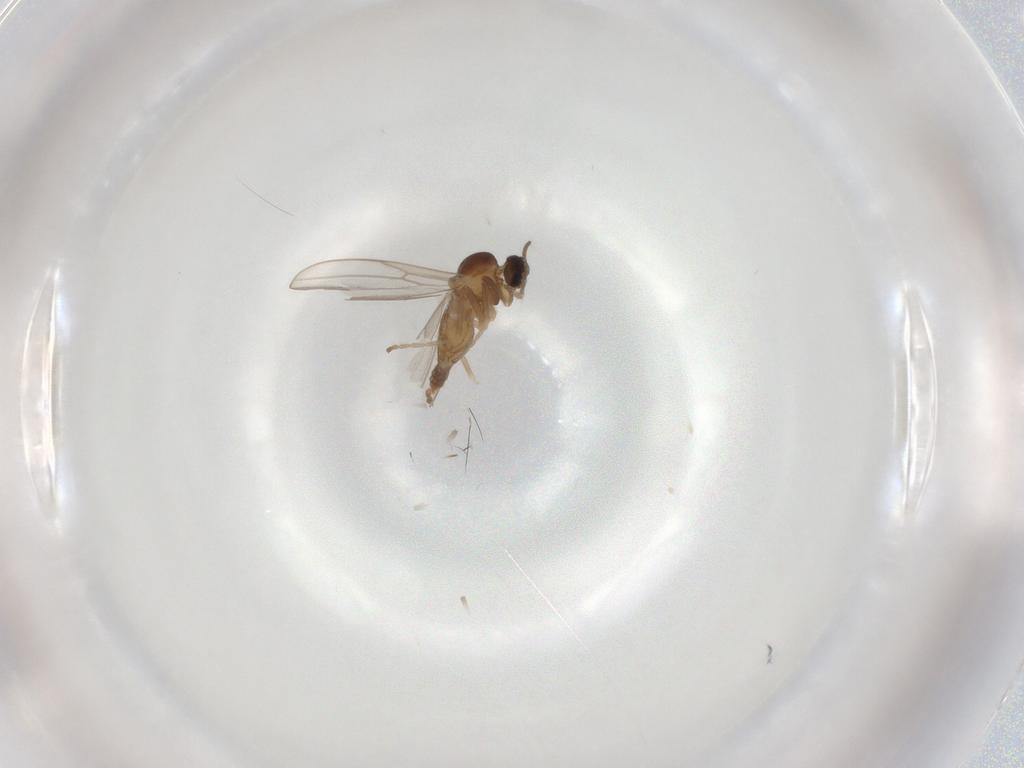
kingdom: Animalia
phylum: Arthropoda
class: Insecta
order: Diptera
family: Cecidomyiidae
